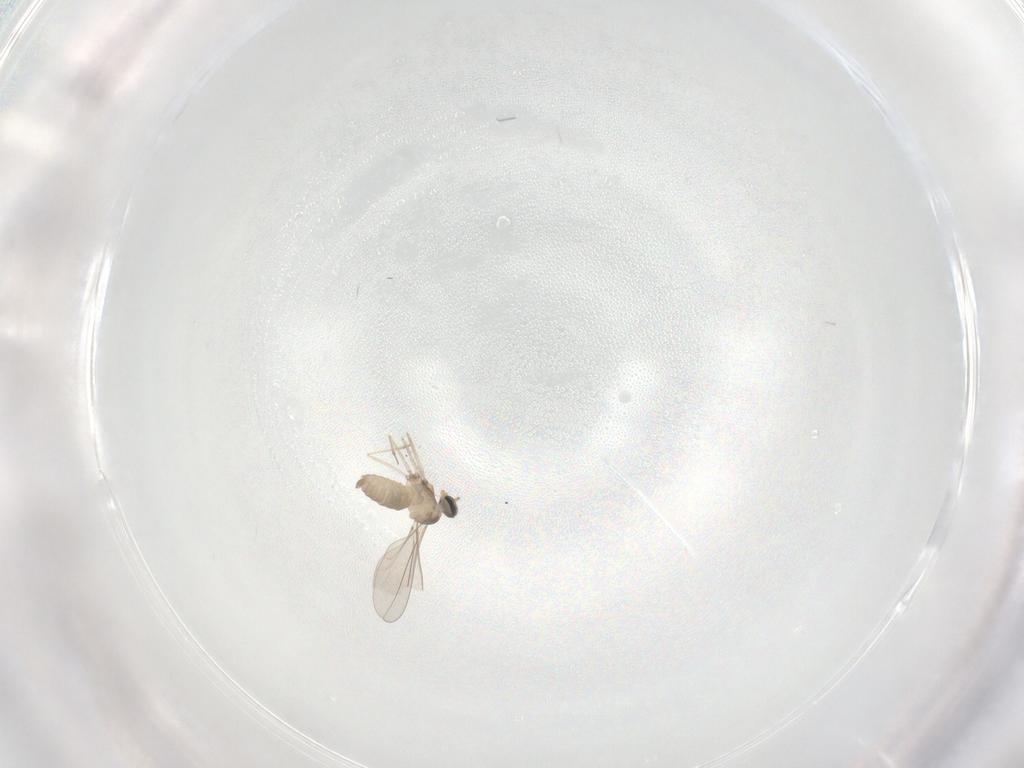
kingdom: Animalia
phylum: Arthropoda
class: Insecta
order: Diptera
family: Cecidomyiidae
